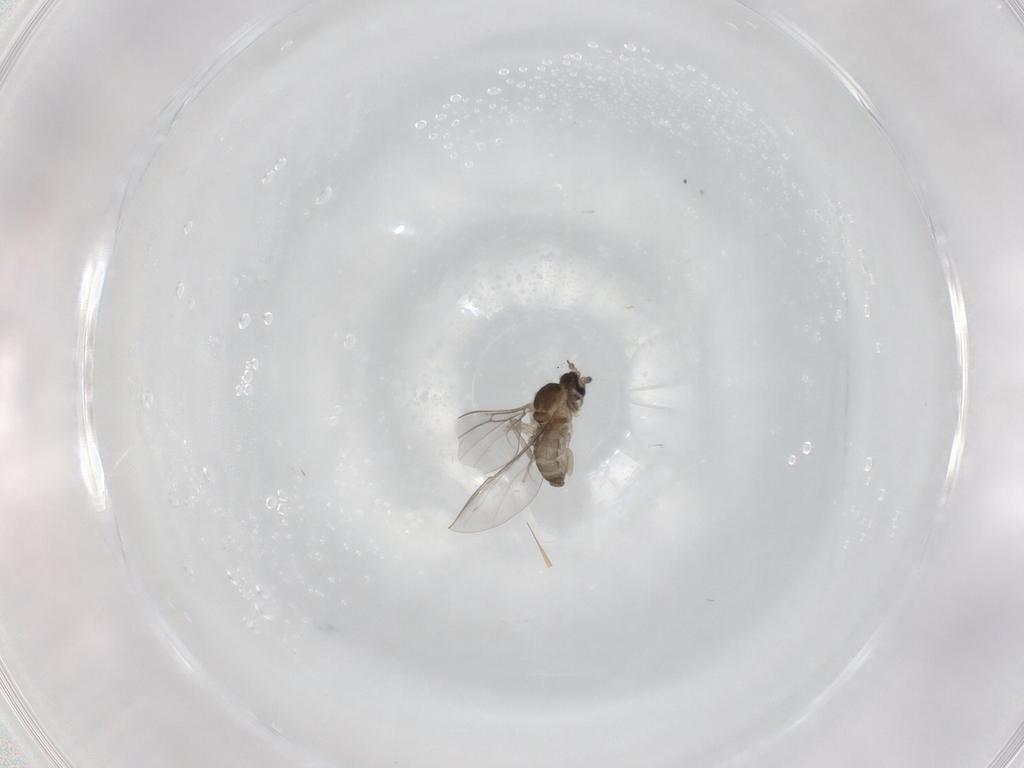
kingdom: Animalia
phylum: Arthropoda
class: Insecta
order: Diptera
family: Cecidomyiidae
